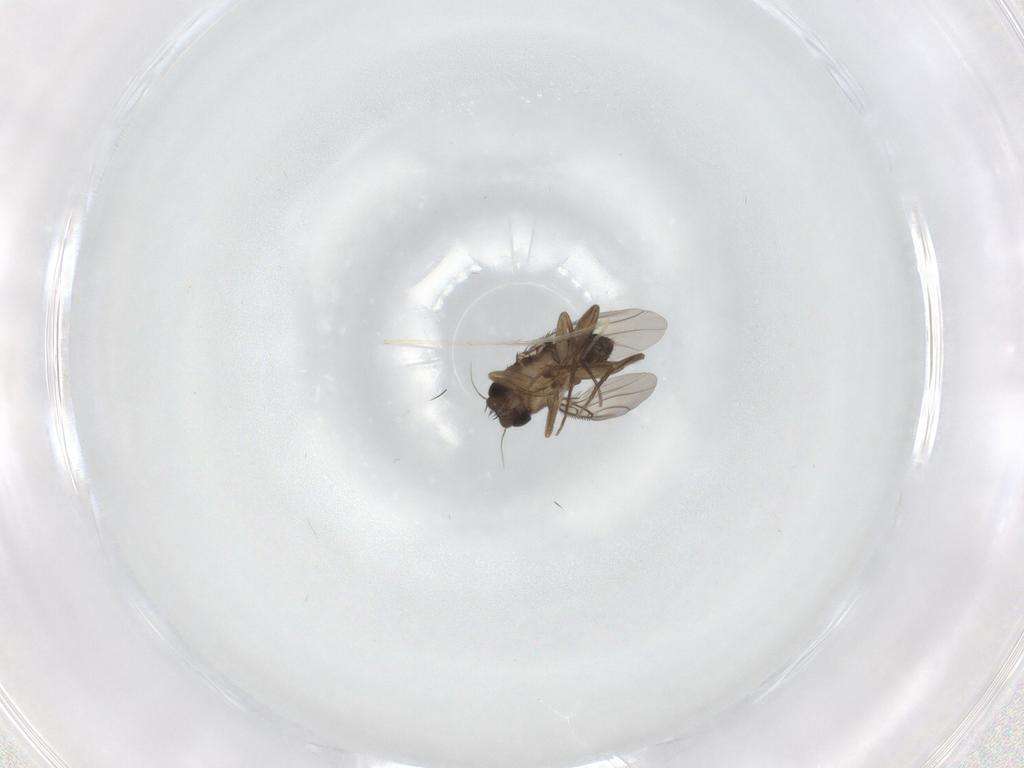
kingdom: Animalia
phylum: Arthropoda
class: Insecta
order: Diptera
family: Phoridae
